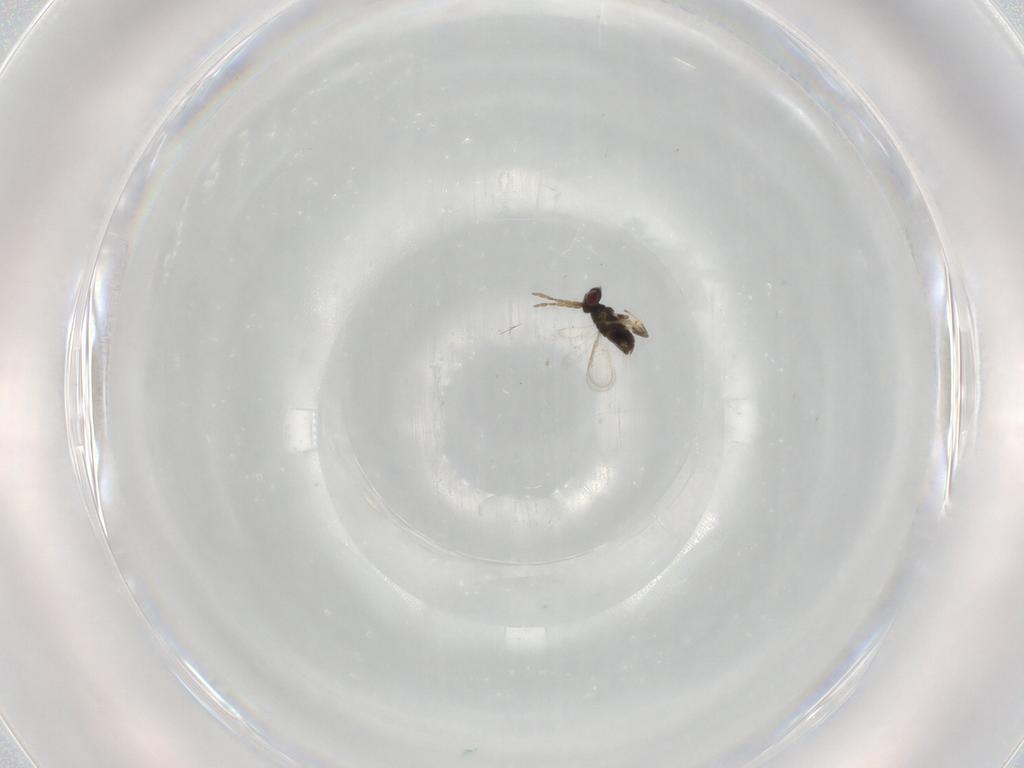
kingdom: Animalia
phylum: Arthropoda
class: Insecta
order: Hymenoptera
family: Aphelinidae
